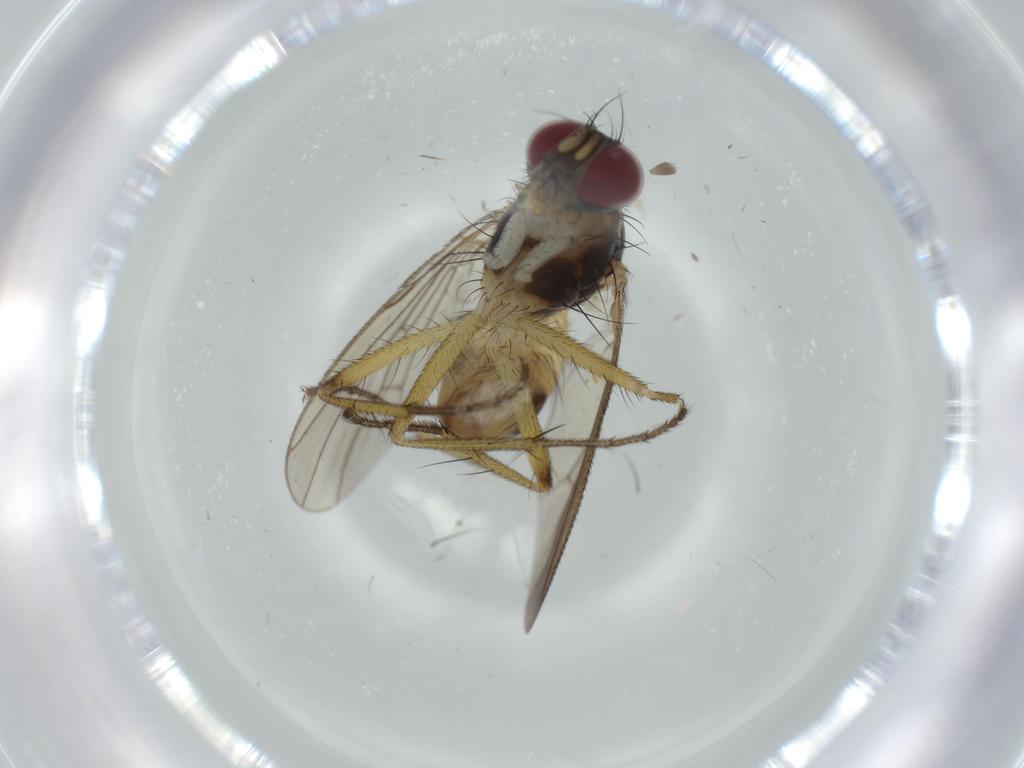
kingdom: Animalia
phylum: Arthropoda
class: Insecta
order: Diptera
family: Muscidae
